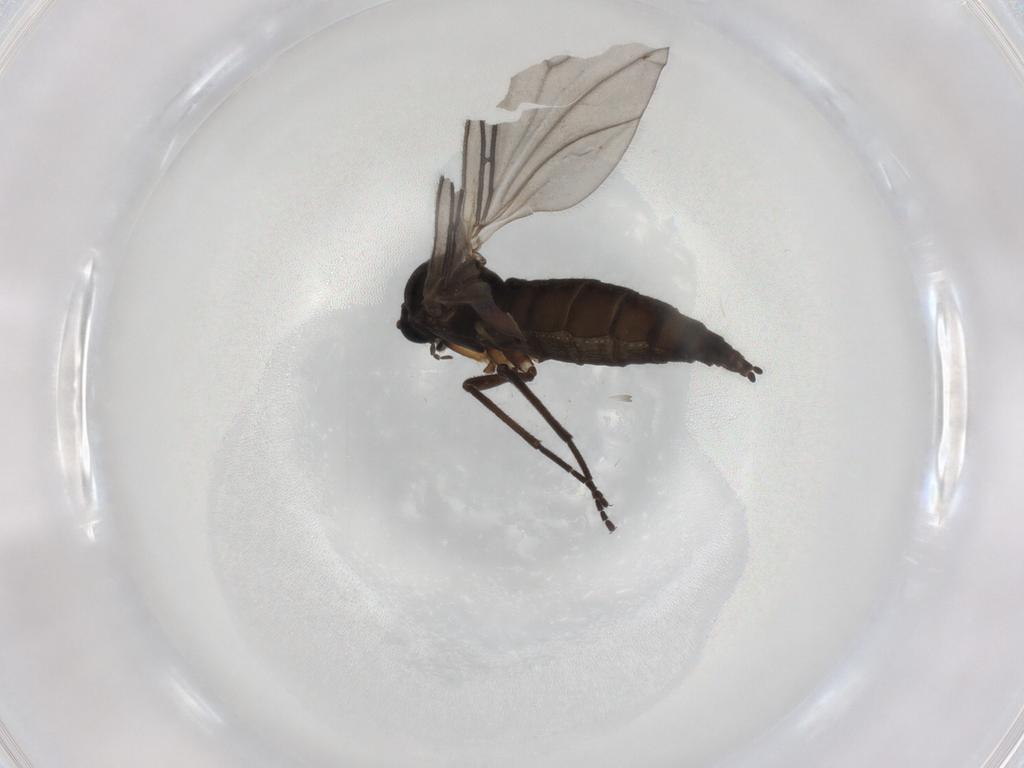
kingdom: Animalia
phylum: Arthropoda
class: Insecta
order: Diptera
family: Sciaridae
